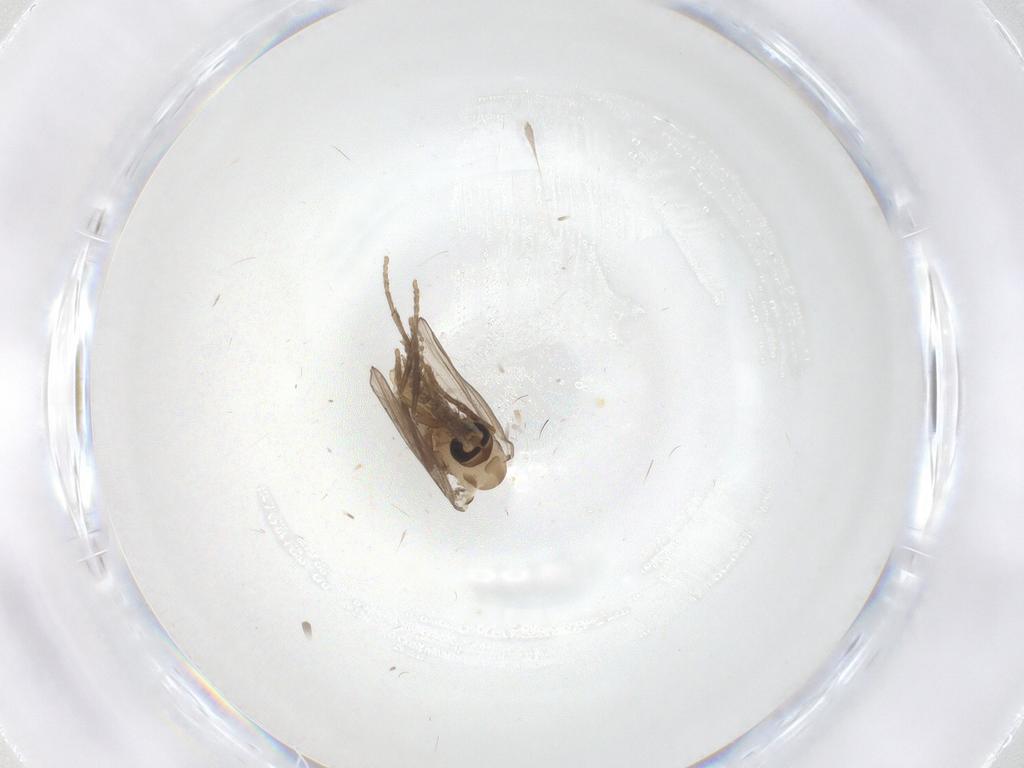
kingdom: Animalia
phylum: Arthropoda
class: Insecta
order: Diptera
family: Psychodidae
